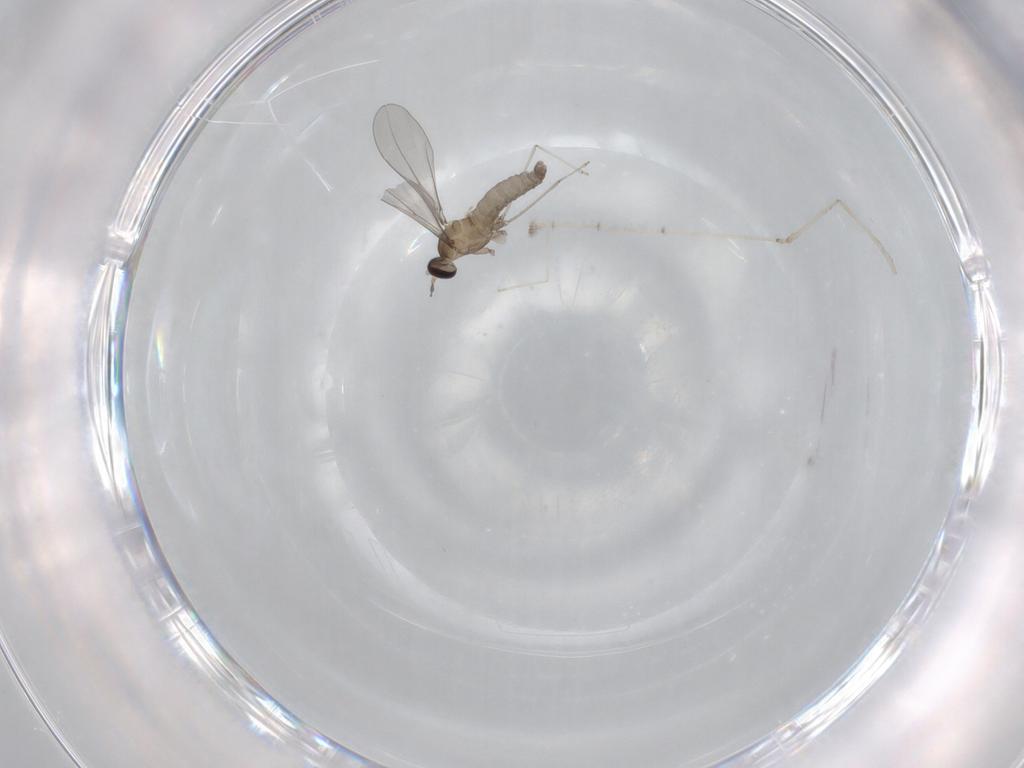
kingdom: Animalia
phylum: Arthropoda
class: Insecta
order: Diptera
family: Cecidomyiidae
